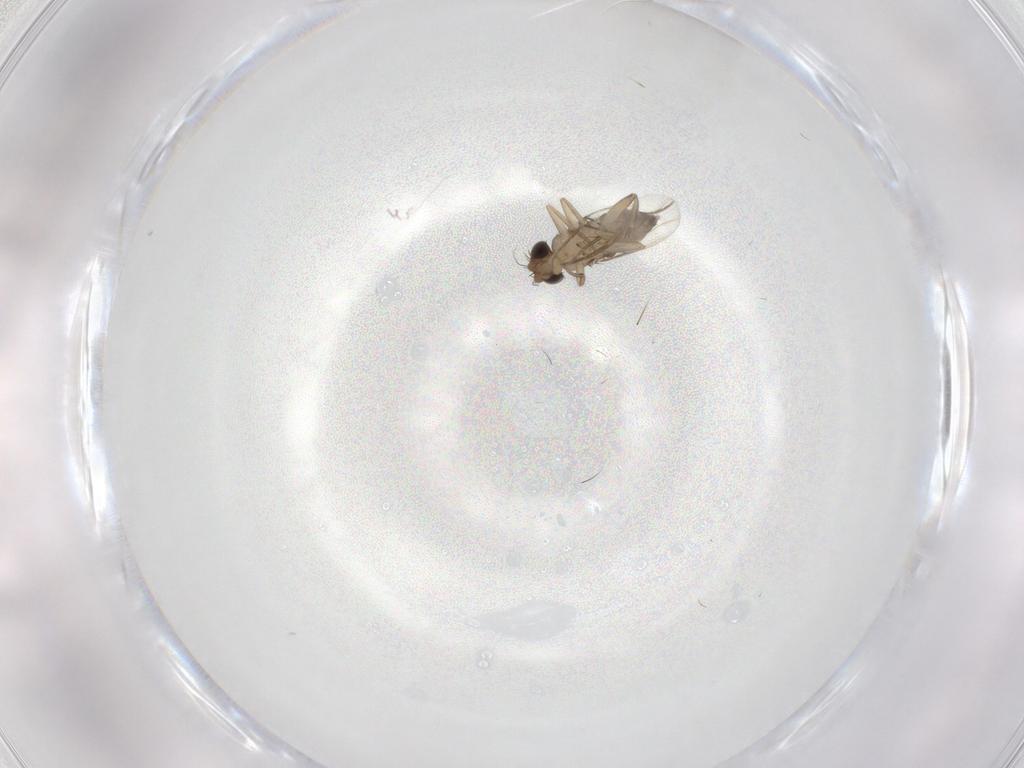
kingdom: Animalia
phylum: Arthropoda
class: Insecta
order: Diptera
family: Phoridae
